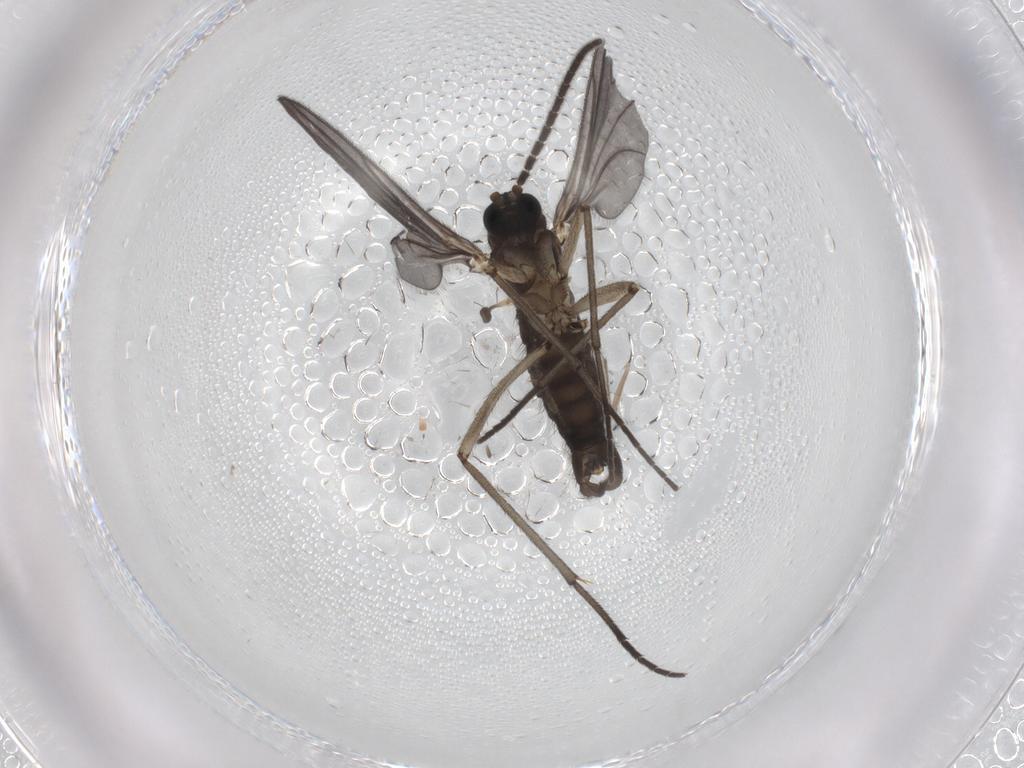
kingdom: Animalia
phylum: Arthropoda
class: Insecta
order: Diptera
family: Sciaridae
